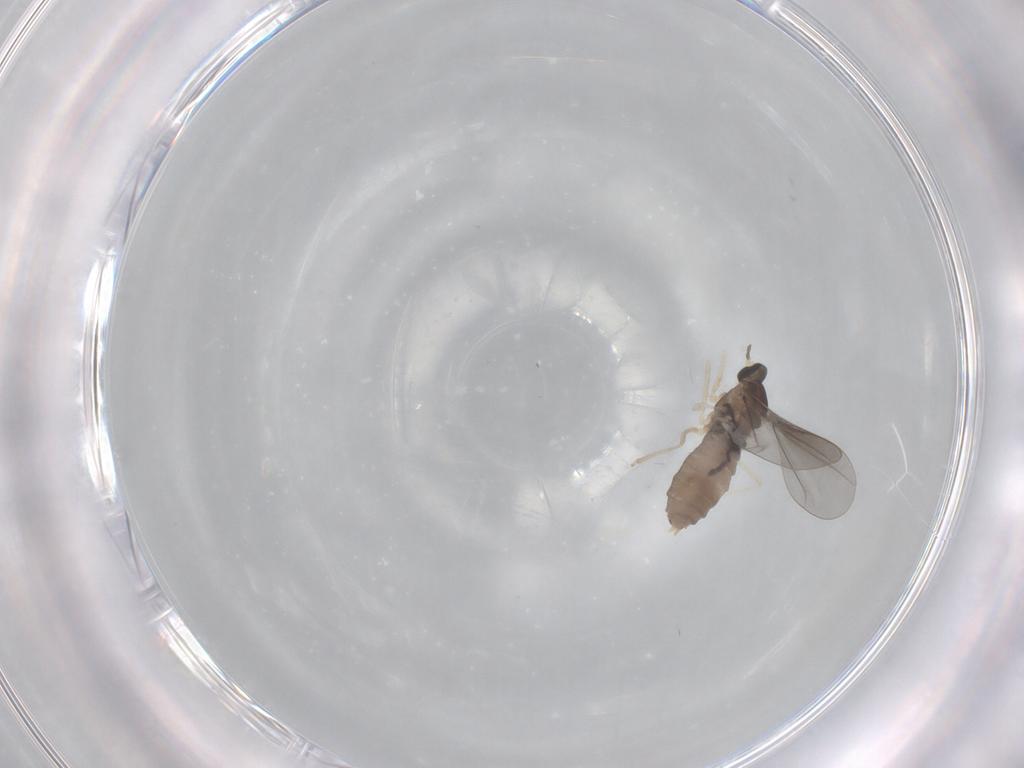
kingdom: Animalia
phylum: Arthropoda
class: Insecta
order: Diptera
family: Cecidomyiidae
